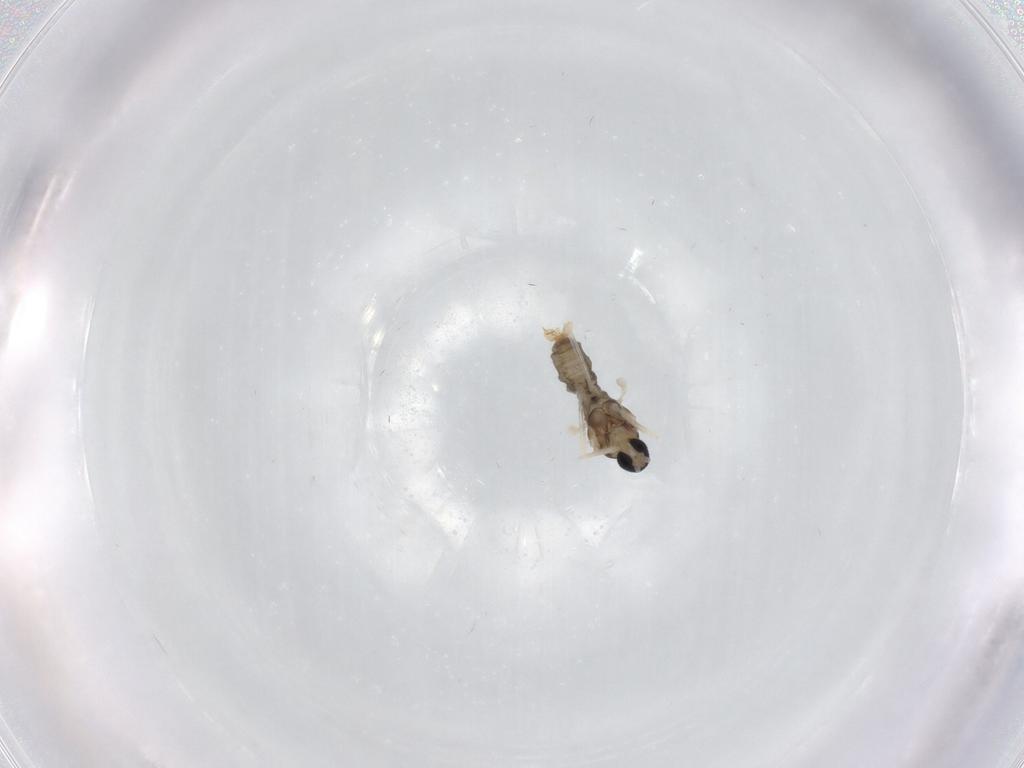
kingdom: Animalia
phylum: Arthropoda
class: Insecta
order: Diptera
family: Cecidomyiidae
